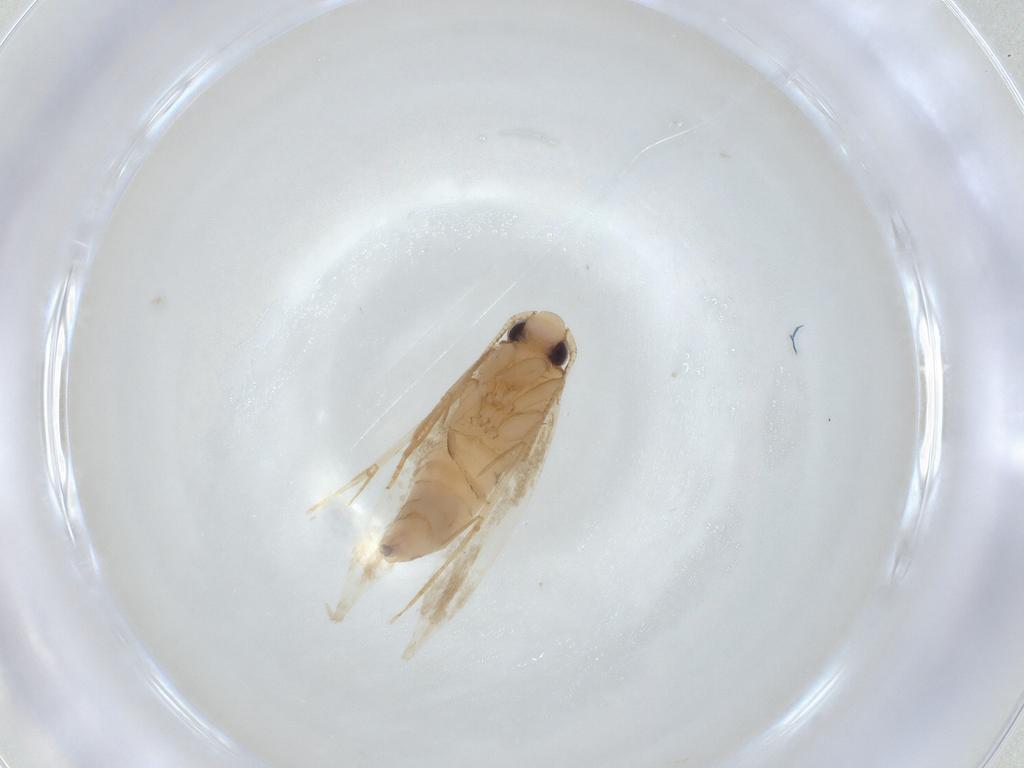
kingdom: Animalia
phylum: Arthropoda
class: Insecta
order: Lepidoptera
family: Tineidae
